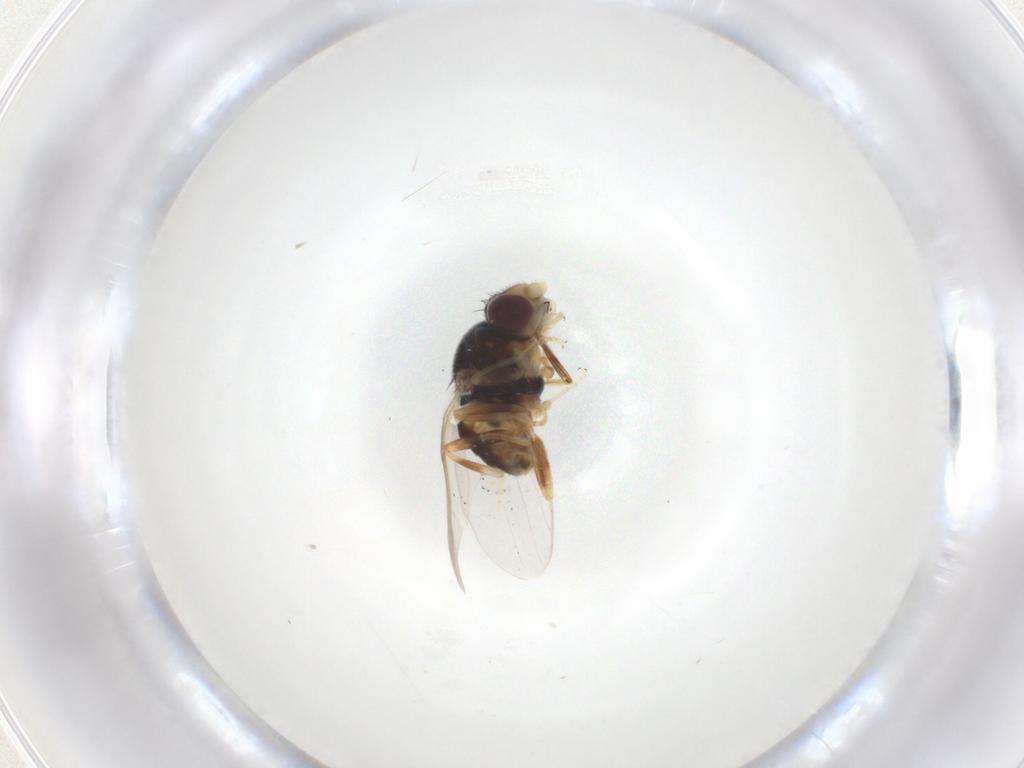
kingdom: Animalia
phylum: Arthropoda
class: Insecta
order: Diptera
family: Chloropidae
